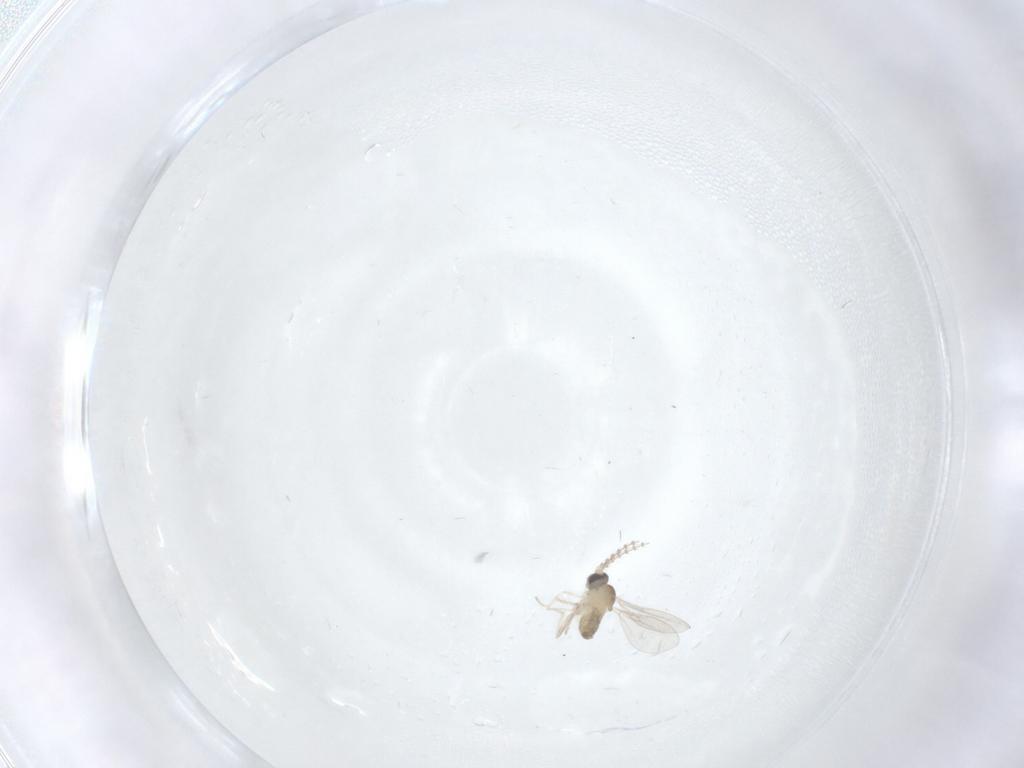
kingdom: Animalia
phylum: Arthropoda
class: Insecta
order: Diptera
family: Cecidomyiidae
